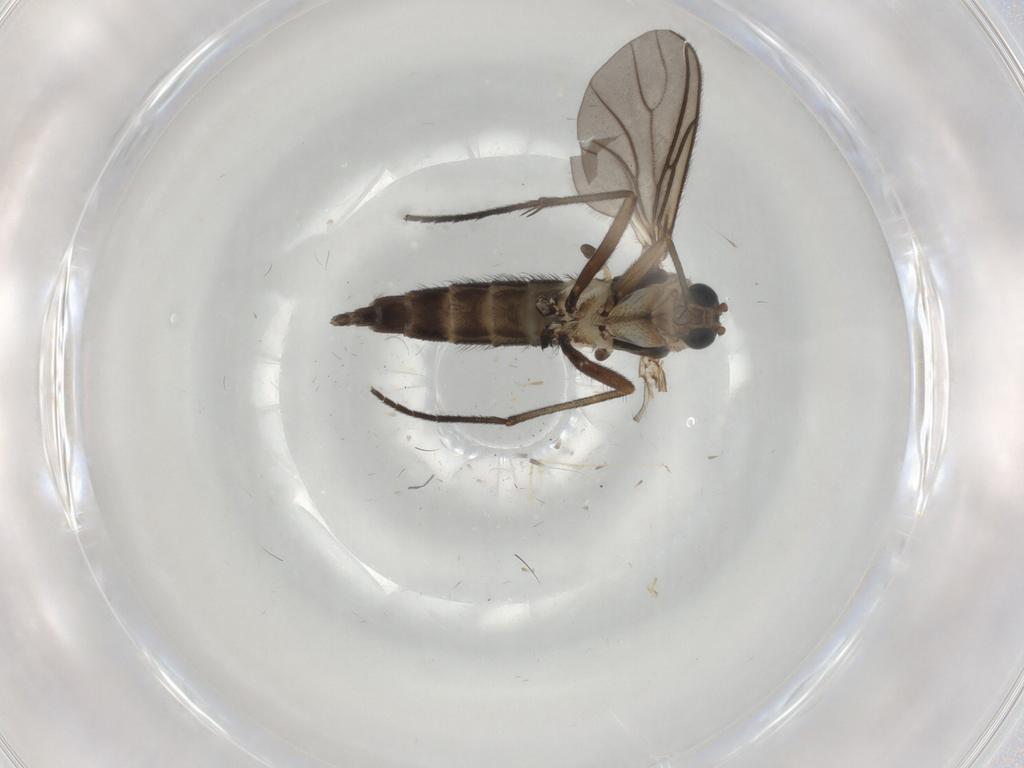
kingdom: Animalia
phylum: Arthropoda
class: Insecta
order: Diptera
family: Sciaridae
